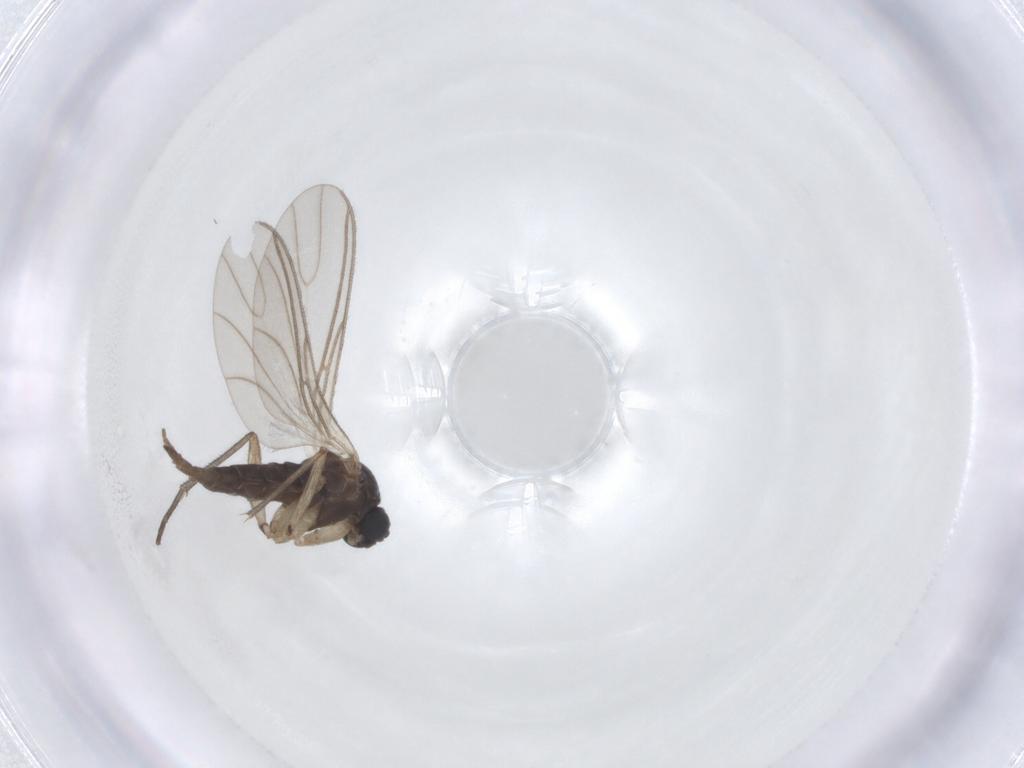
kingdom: Animalia
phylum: Arthropoda
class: Insecta
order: Diptera
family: Sciaridae
